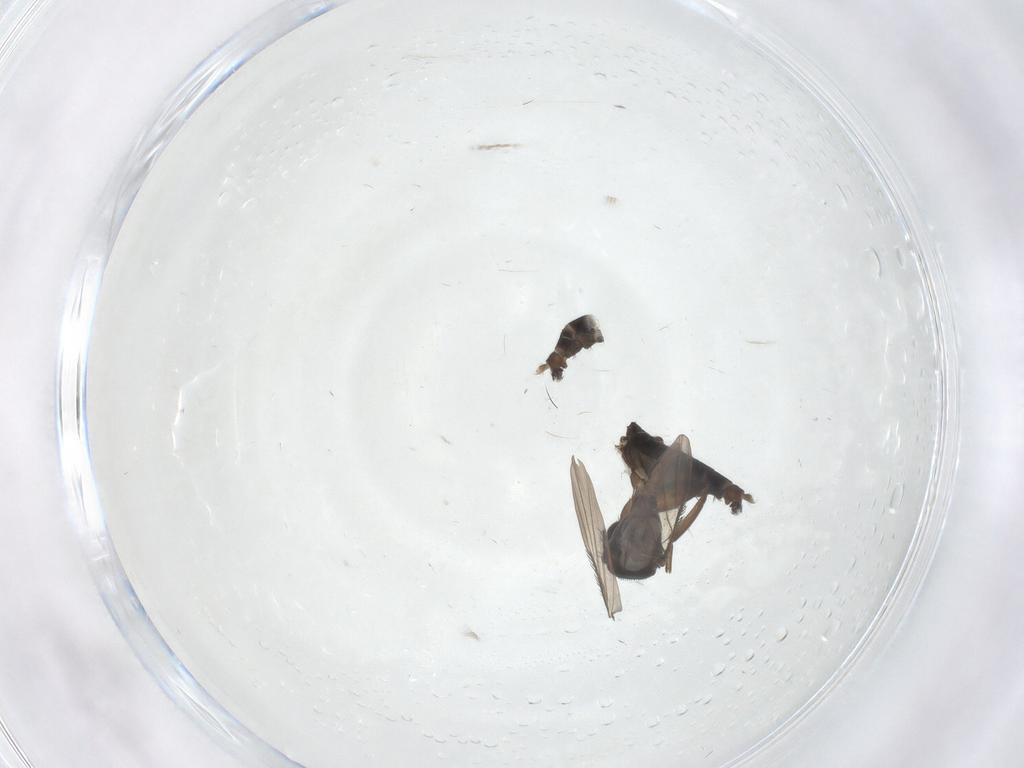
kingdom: Animalia
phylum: Arthropoda
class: Insecta
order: Diptera
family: Phoridae
